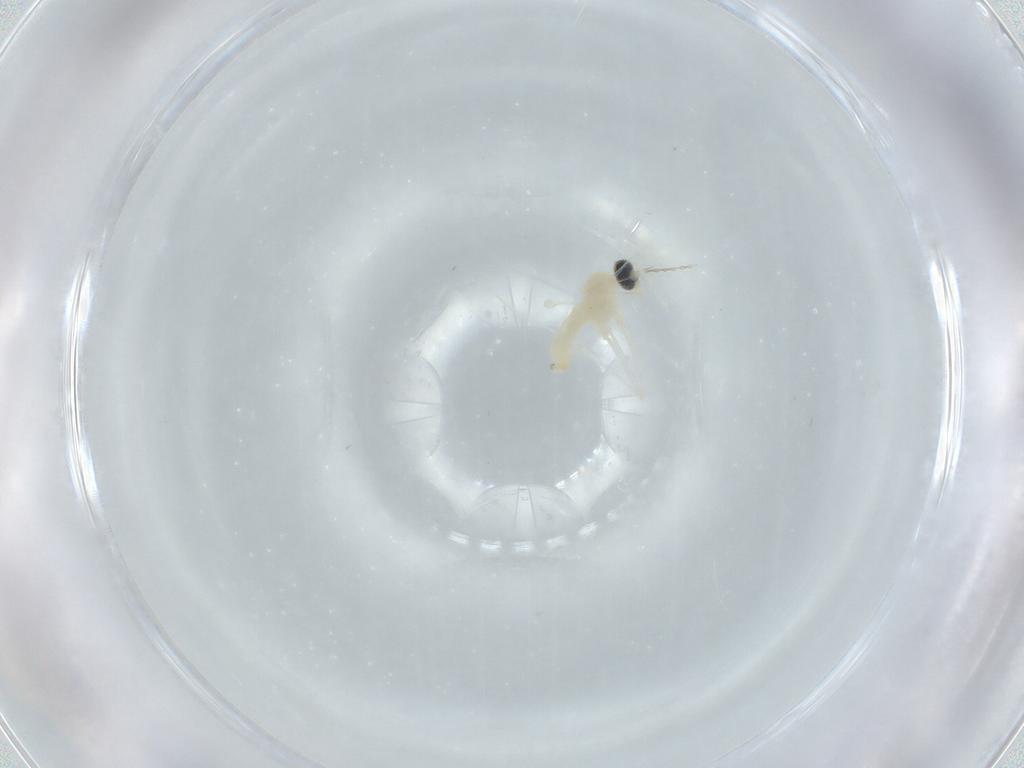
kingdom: Animalia
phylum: Arthropoda
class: Insecta
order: Diptera
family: Cecidomyiidae
